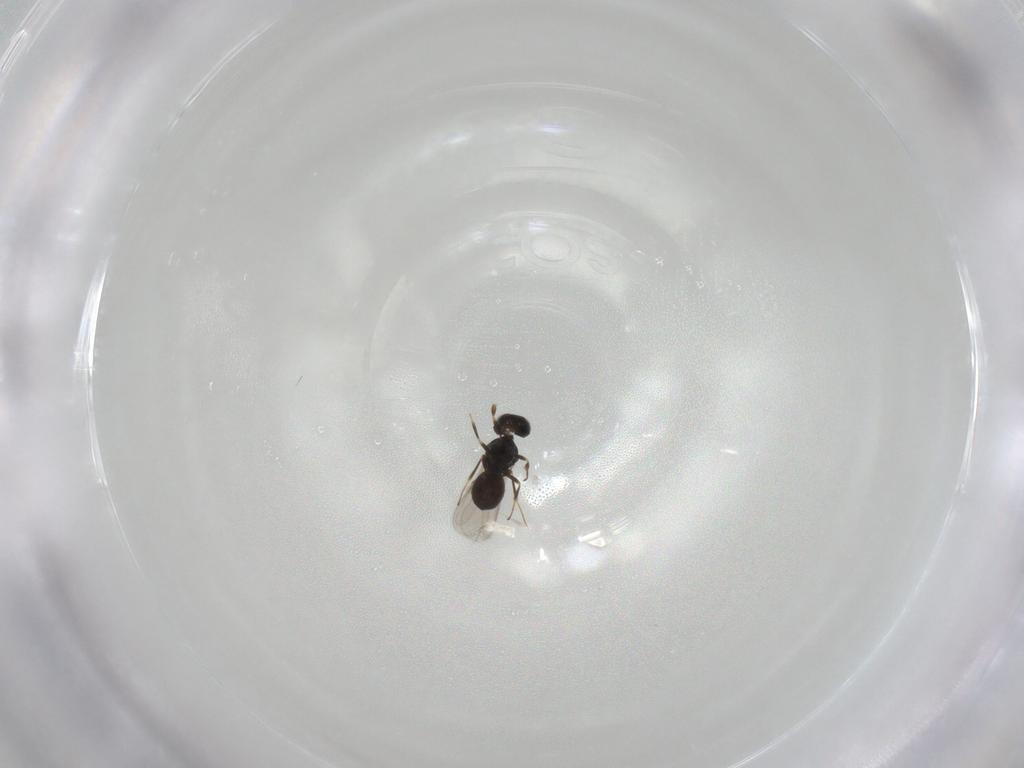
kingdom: Animalia
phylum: Arthropoda
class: Insecta
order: Hymenoptera
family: Scelionidae
